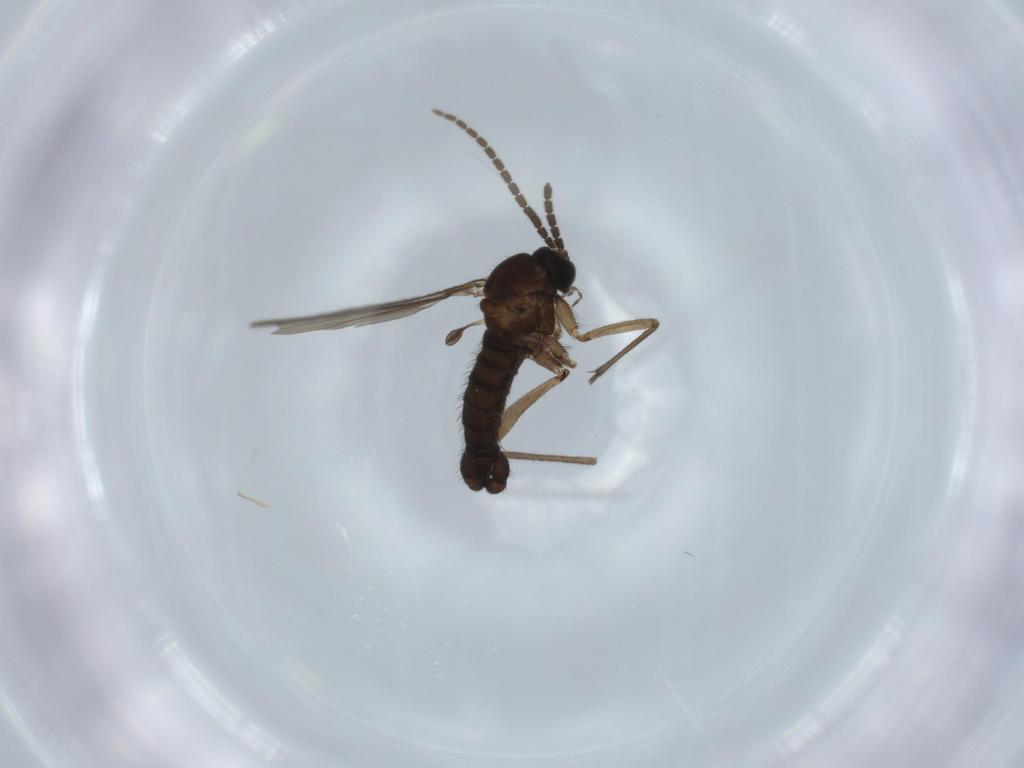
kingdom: Animalia
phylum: Arthropoda
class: Insecta
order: Diptera
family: Sciaridae
